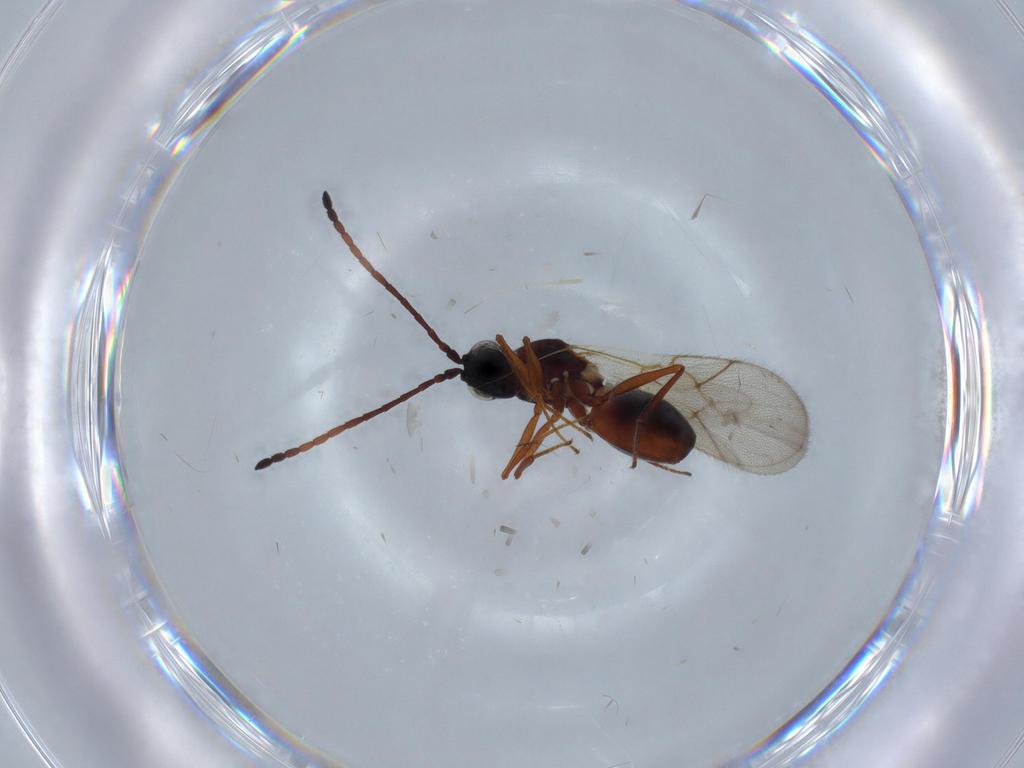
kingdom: Animalia
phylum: Arthropoda
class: Insecta
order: Hymenoptera
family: Figitidae
